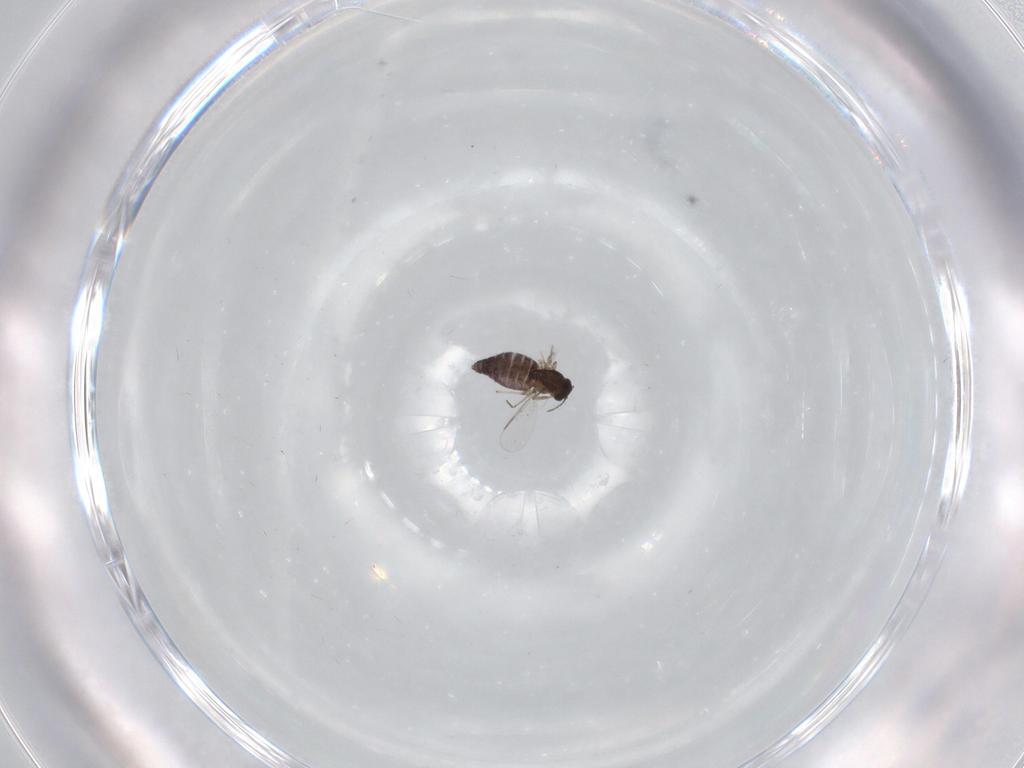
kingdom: Animalia
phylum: Arthropoda
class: Insecta
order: Diptera
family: Chironomidae
